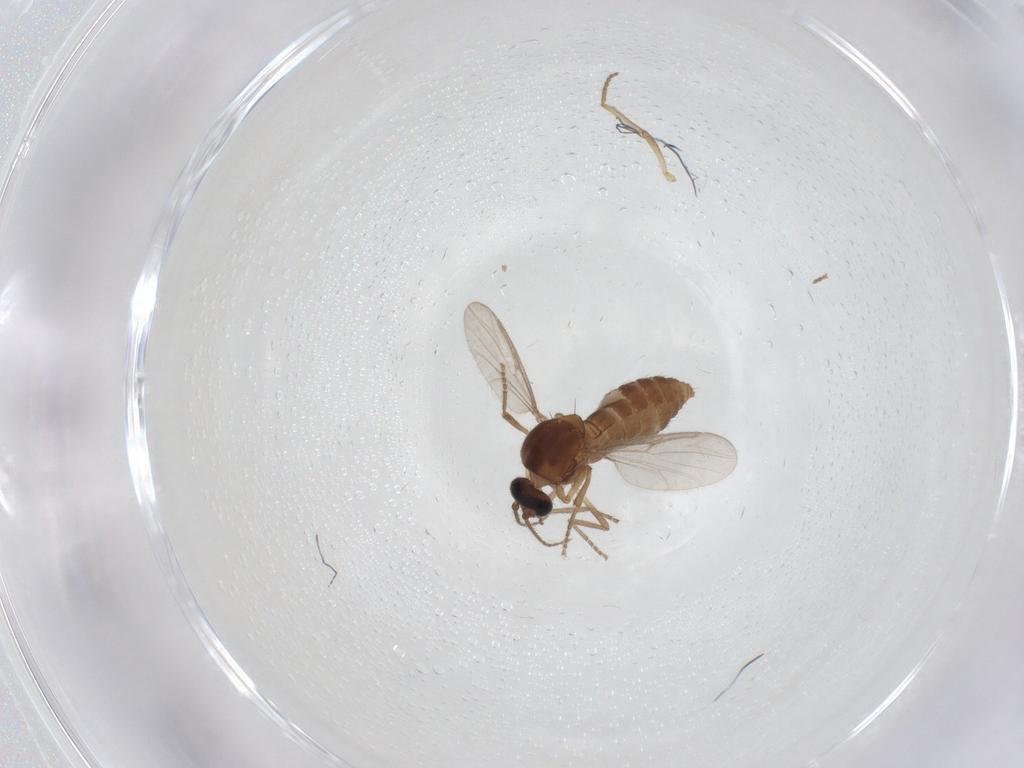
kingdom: Animalia
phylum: Arthropoda
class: Insecta
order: Diptera
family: Ceratopogonidae
